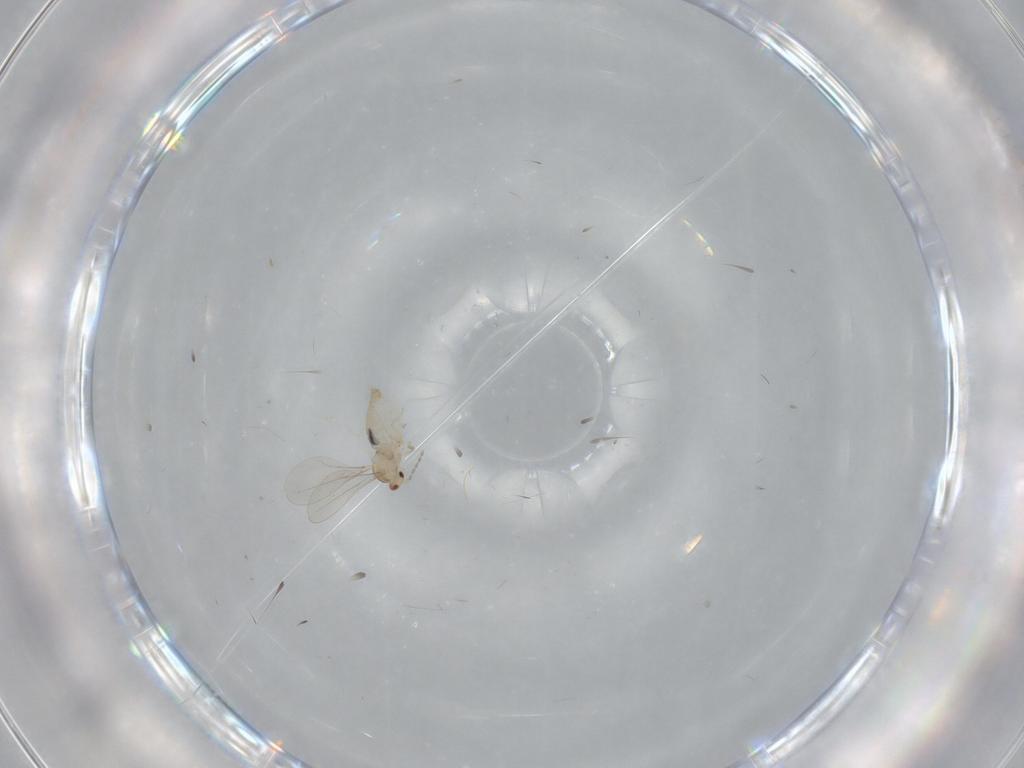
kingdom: Animalia
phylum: Arthropoda
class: Insecta
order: Diptera
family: Cecidomyiidae
